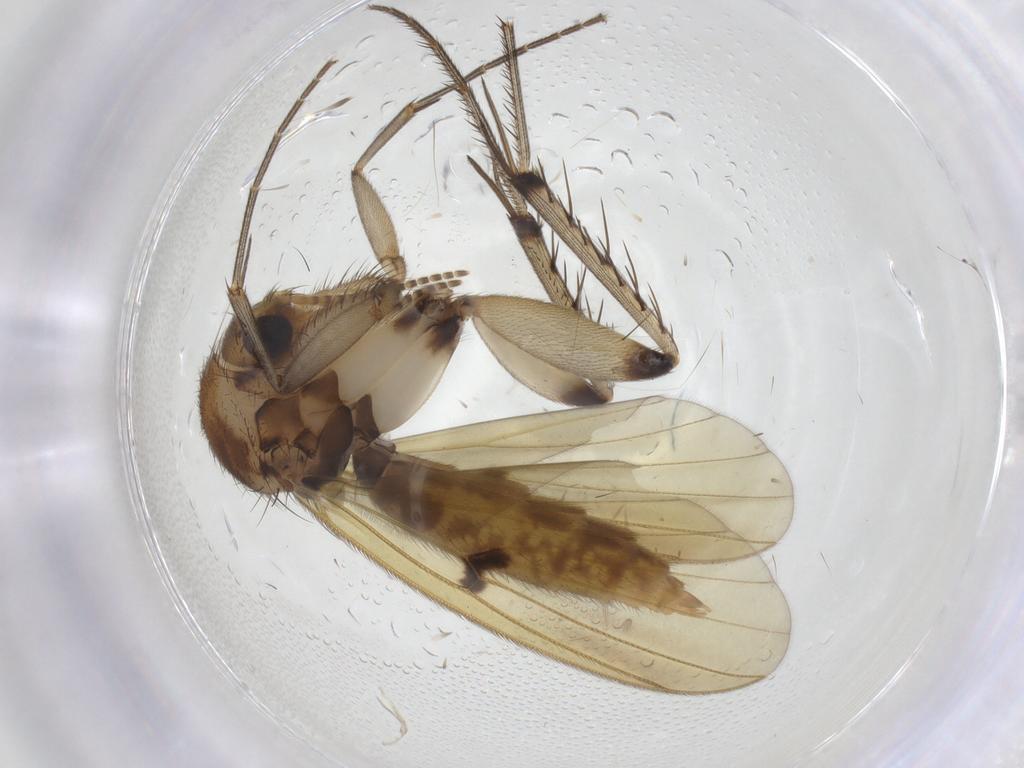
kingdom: Animalia
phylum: Arthropoda
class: Insecta
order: Diptera
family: Mycetophilidae
